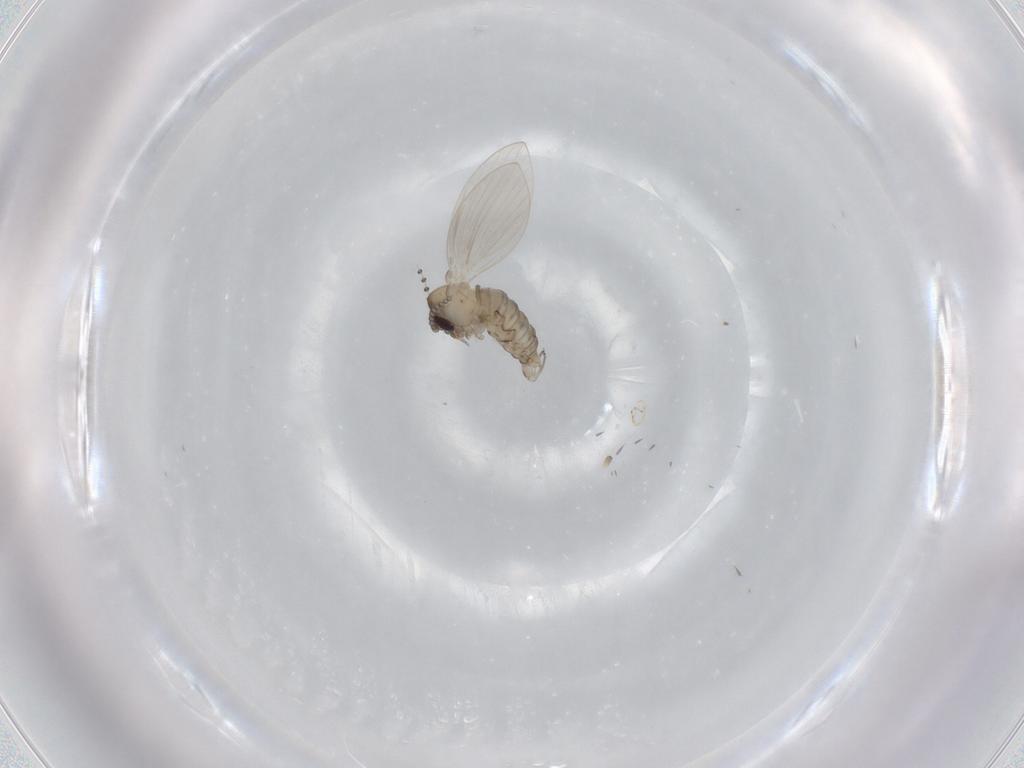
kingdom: Animalia
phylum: Arthropoda
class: Insecta
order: Diptera
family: Psychodidae
